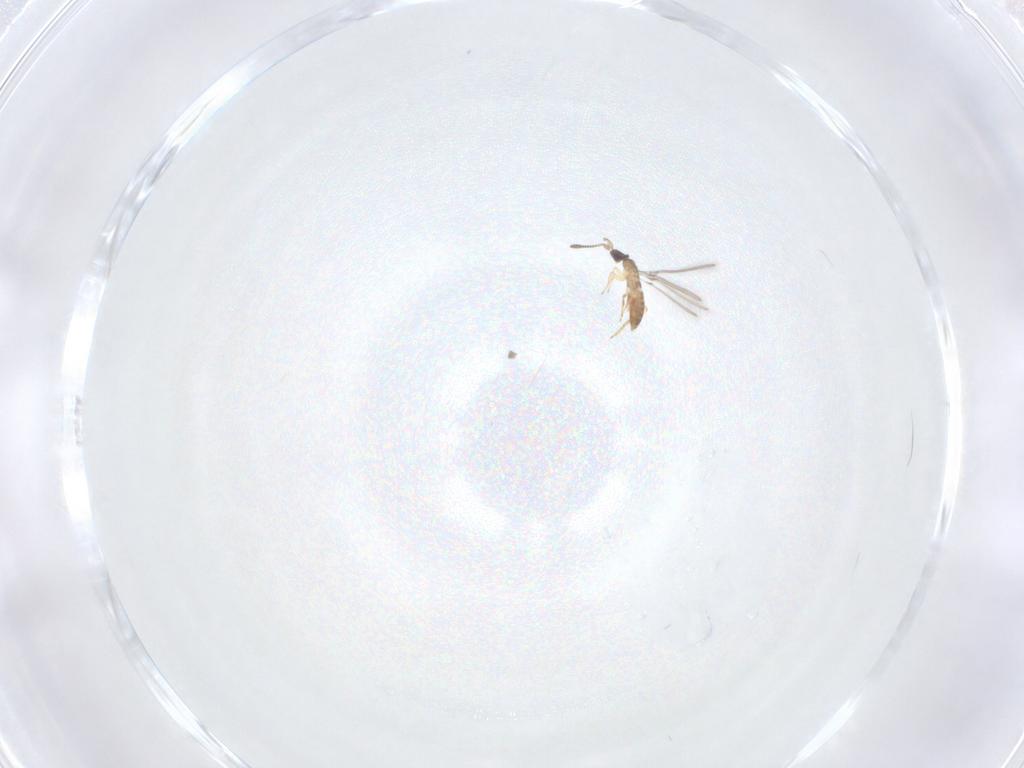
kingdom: Animalia
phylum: Arthropoda
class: Insecta
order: Hymenoptera
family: Mymaridae
